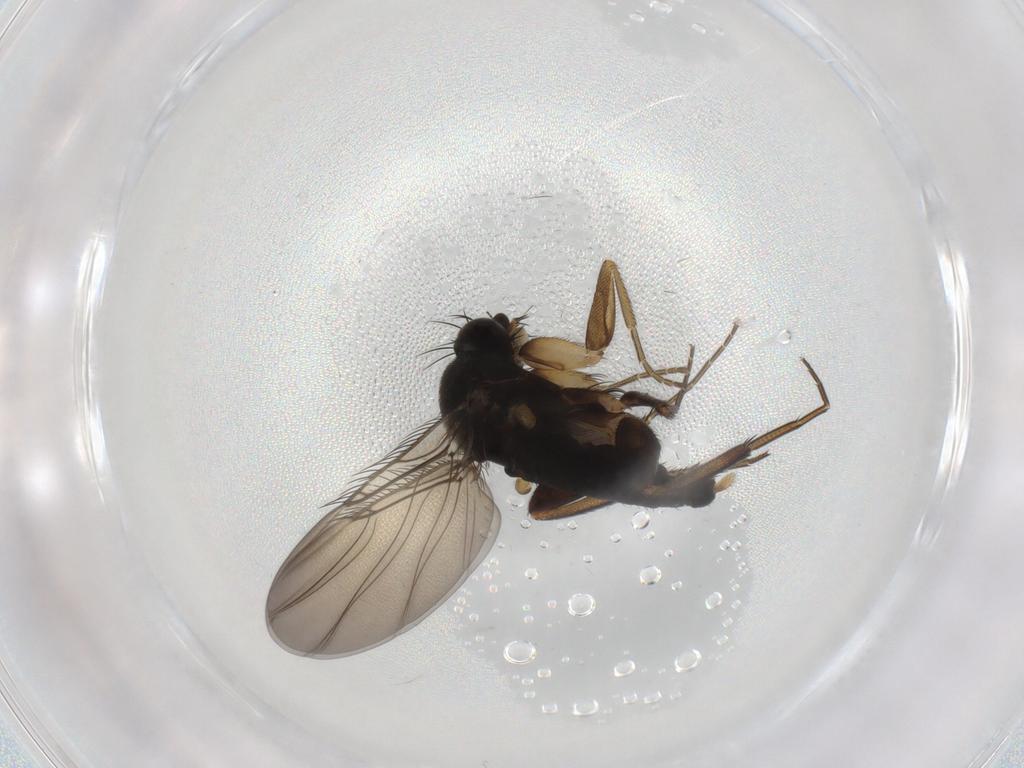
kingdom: Animalia
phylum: Arthropoda
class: Insecta
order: Diptera
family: Phoridae
